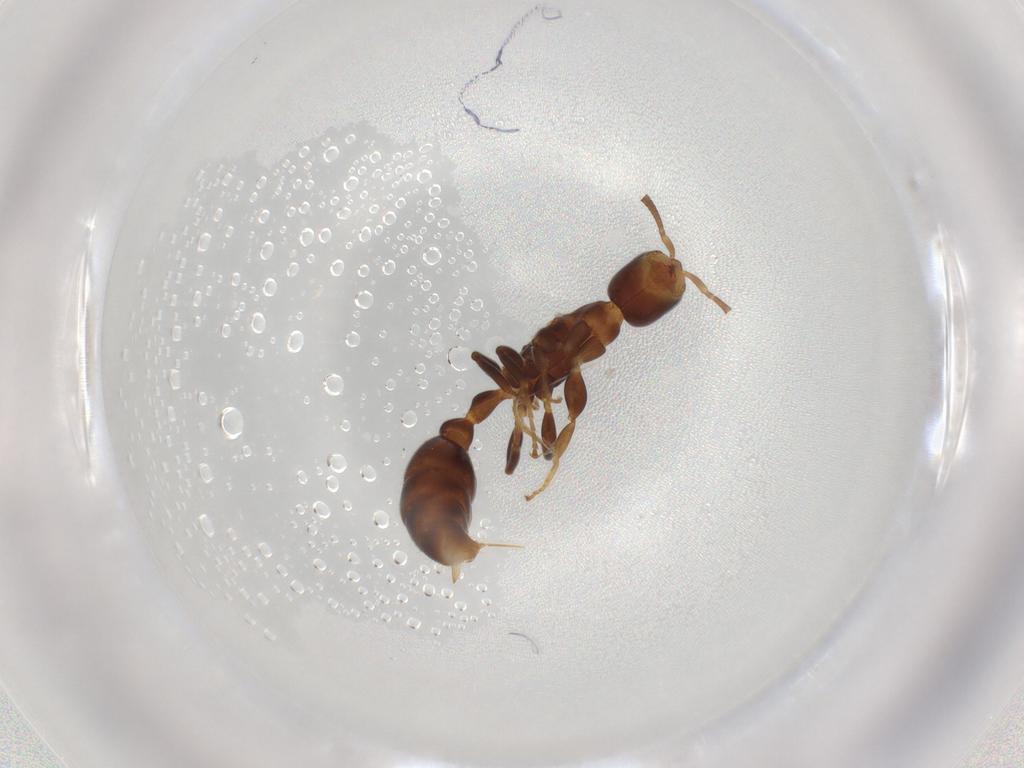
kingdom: Animalia
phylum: Arthropoda
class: Insecta
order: Hymenoptera
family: Formicidae
